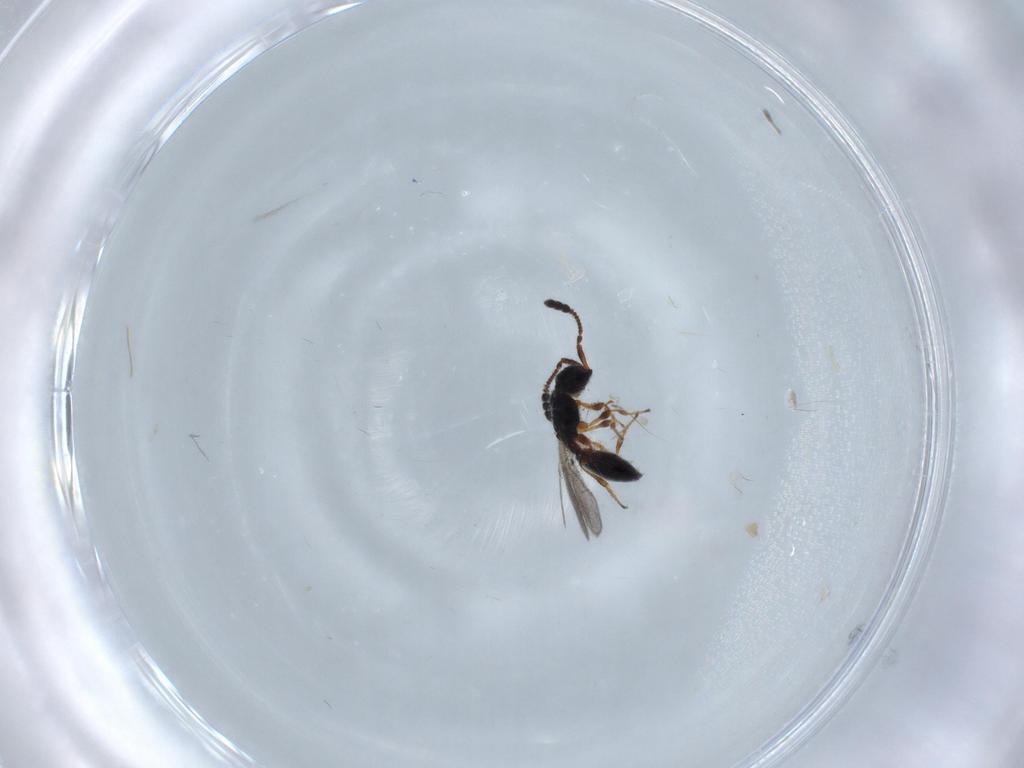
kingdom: Animalia
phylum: Arthropoda
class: Insecta
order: Hymenoptera
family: Diapriidae
